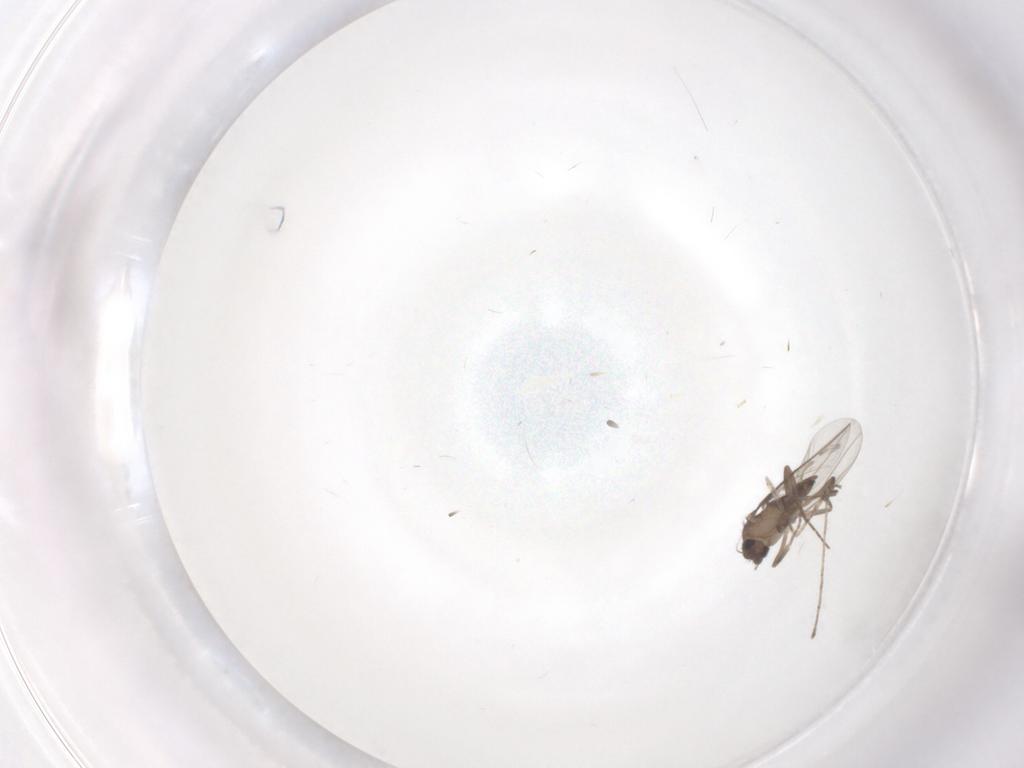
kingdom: Animalia
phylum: Arthropoda
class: Insecta
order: Diptera
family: Cecidomyiidae
